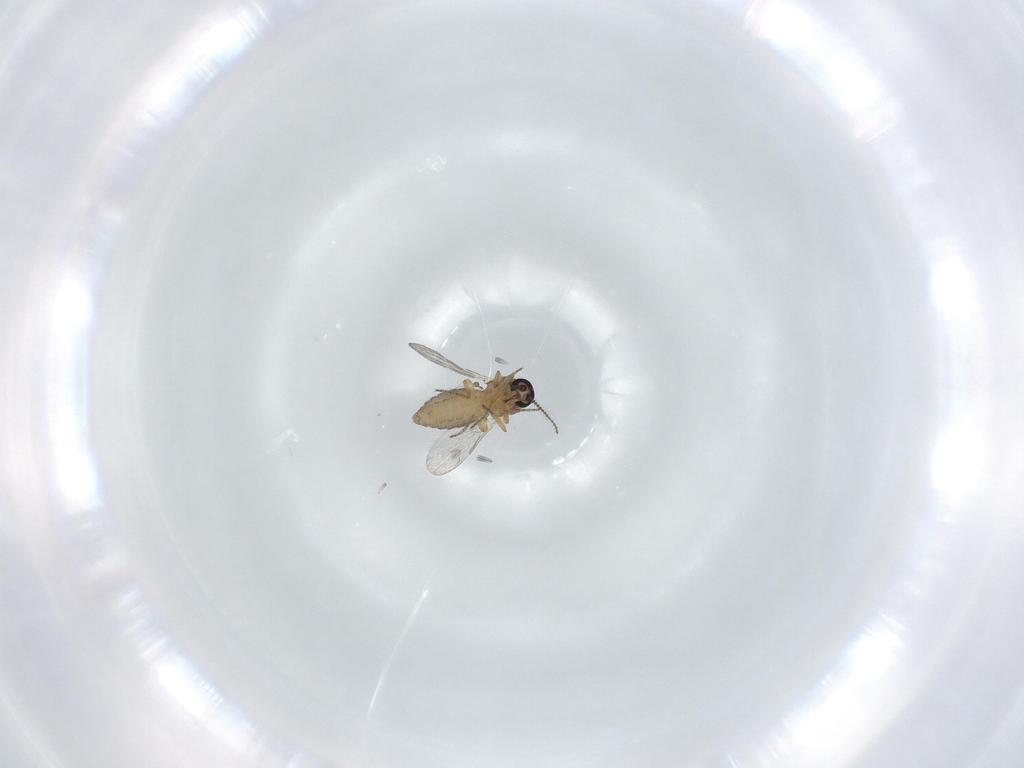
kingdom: Animalia
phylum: Arthropoda
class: Insecta
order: Diptera
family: Ceratopogonidae
